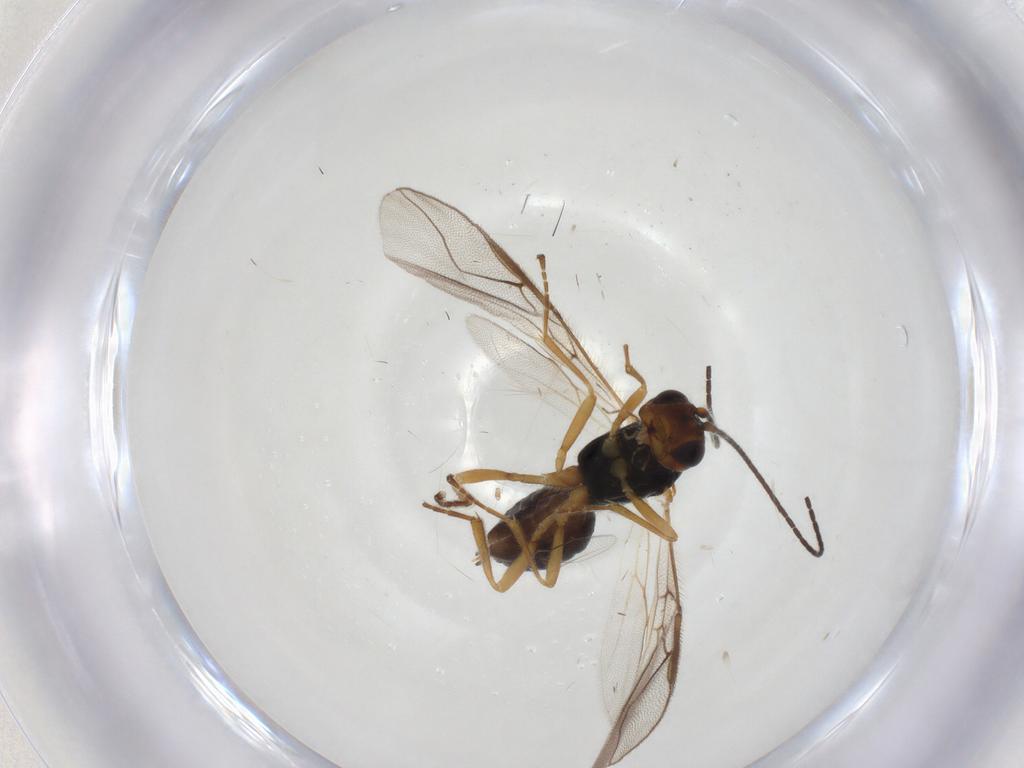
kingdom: Animalia
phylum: Arthropoda
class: Insecta
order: Hymenoptera
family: Braconidae
